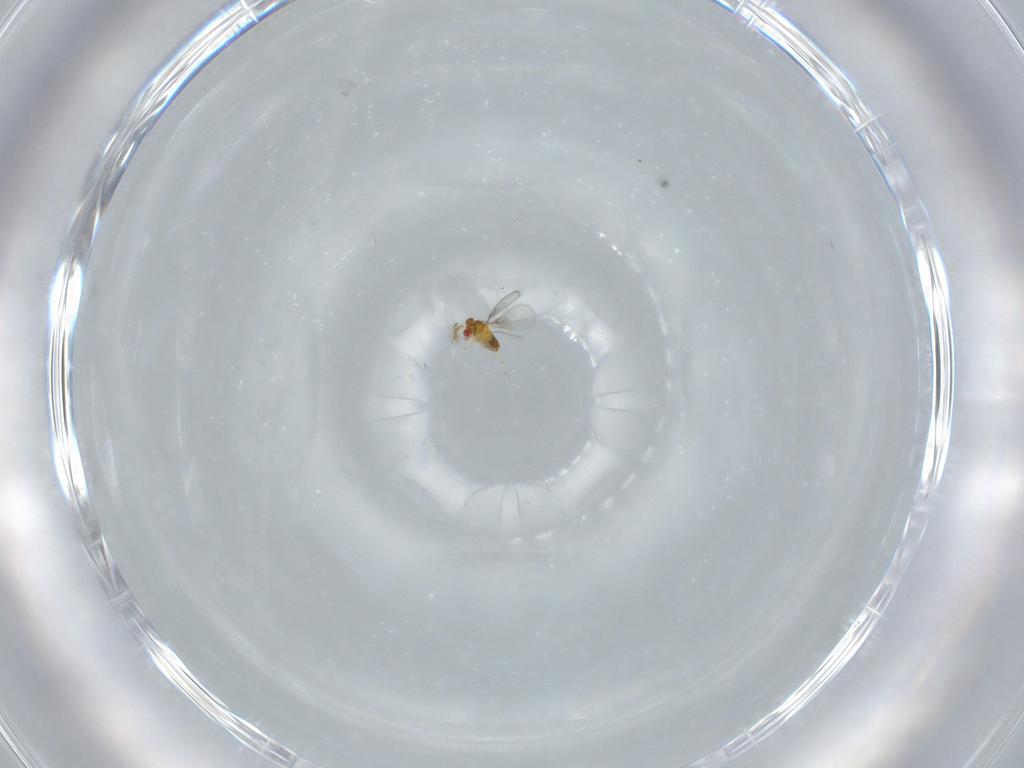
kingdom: Animalia
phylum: Arthropoda
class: Insecta
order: Hymenoptera
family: Trichogrammatidae
